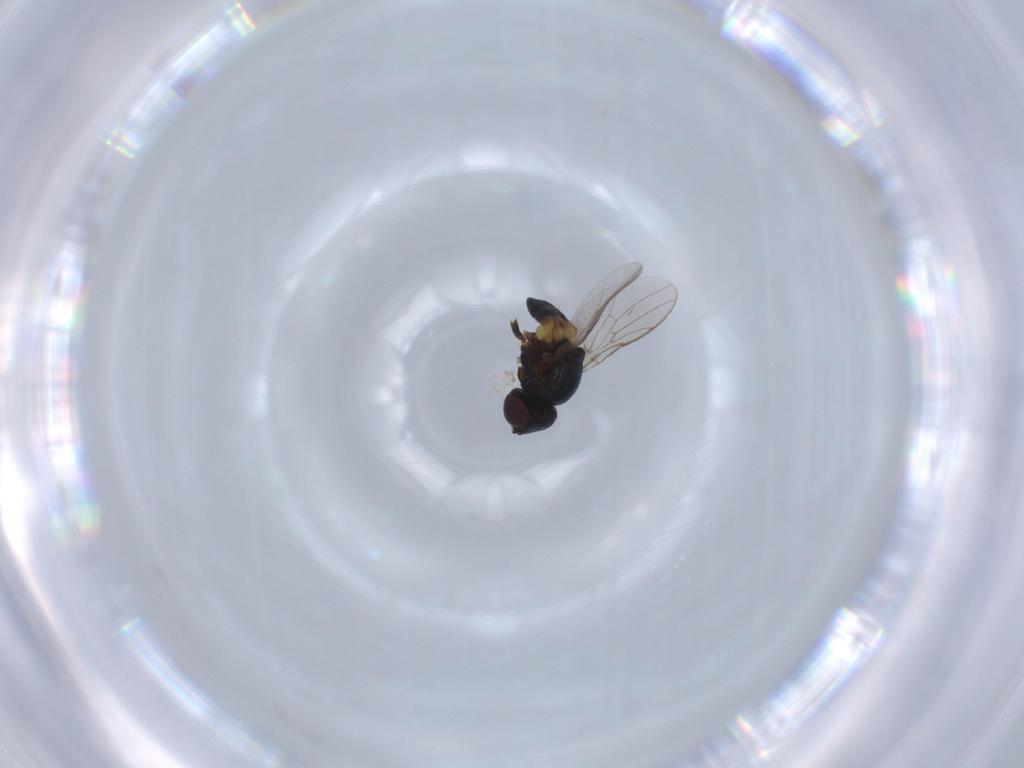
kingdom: Animalia
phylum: Arthropoda
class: Insecta
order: Diptera
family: Chloropidae
